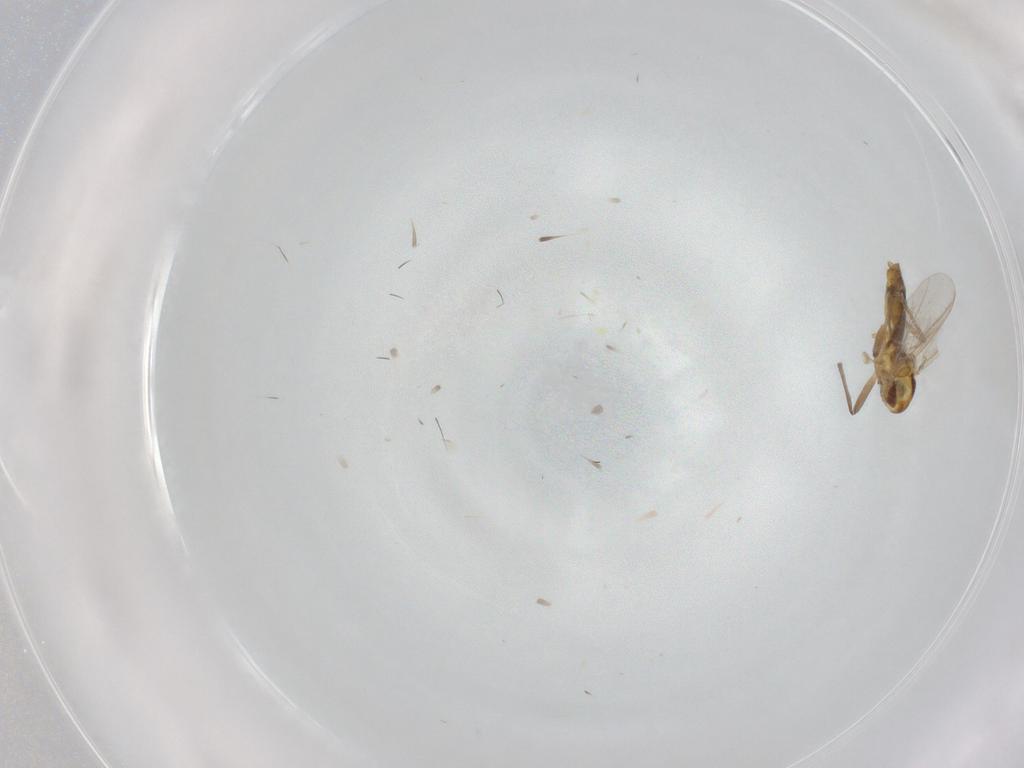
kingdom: Animalia
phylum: Arthropoda
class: Insecta
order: Diptera
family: Chironomidae
